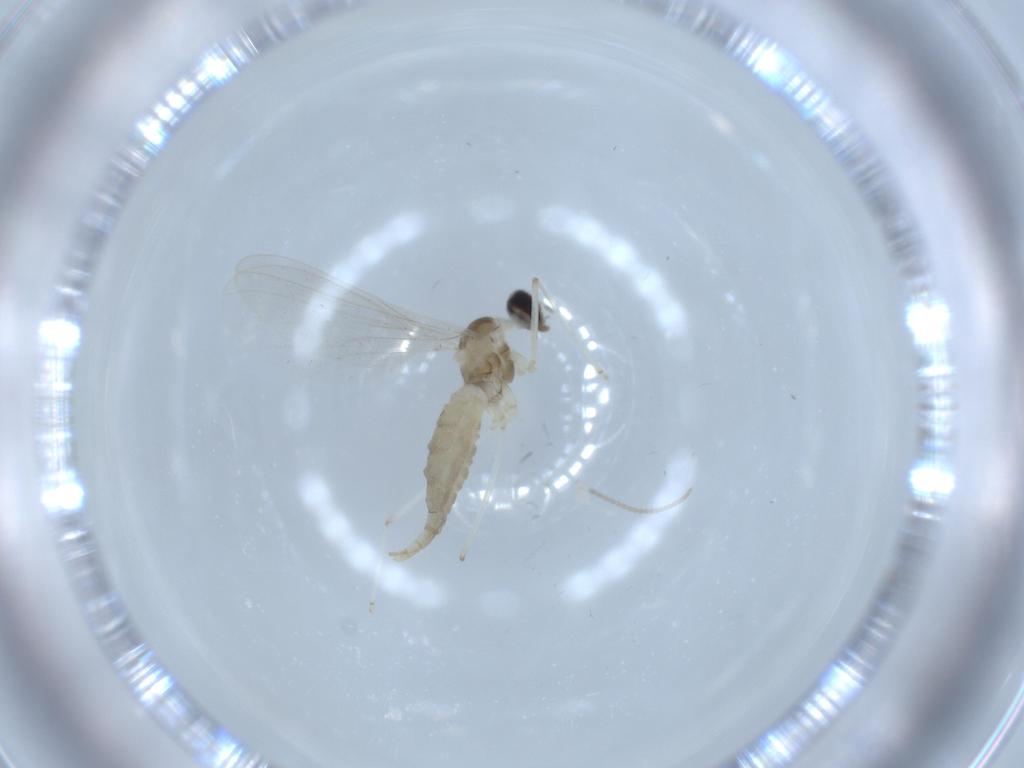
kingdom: Animalia
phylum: Arthropoda
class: Insecta
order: Diptera
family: Cecidomyiidae
